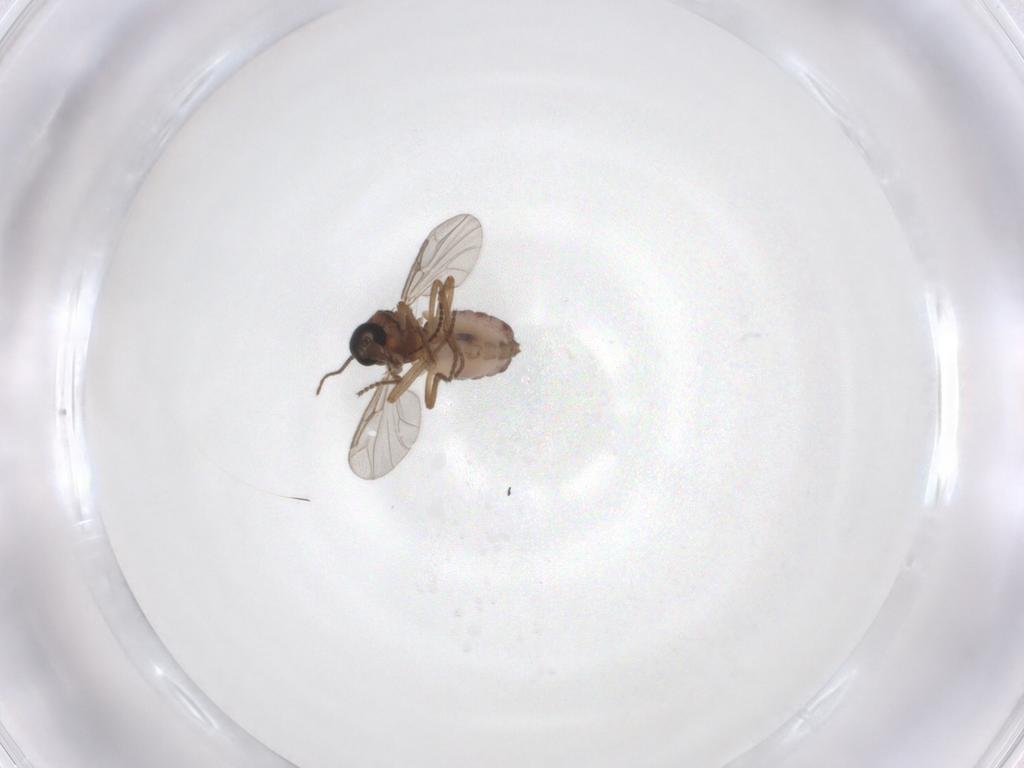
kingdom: Animalia
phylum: Arthropoda
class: Insecta
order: Diptera
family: Ceratopogonidae
